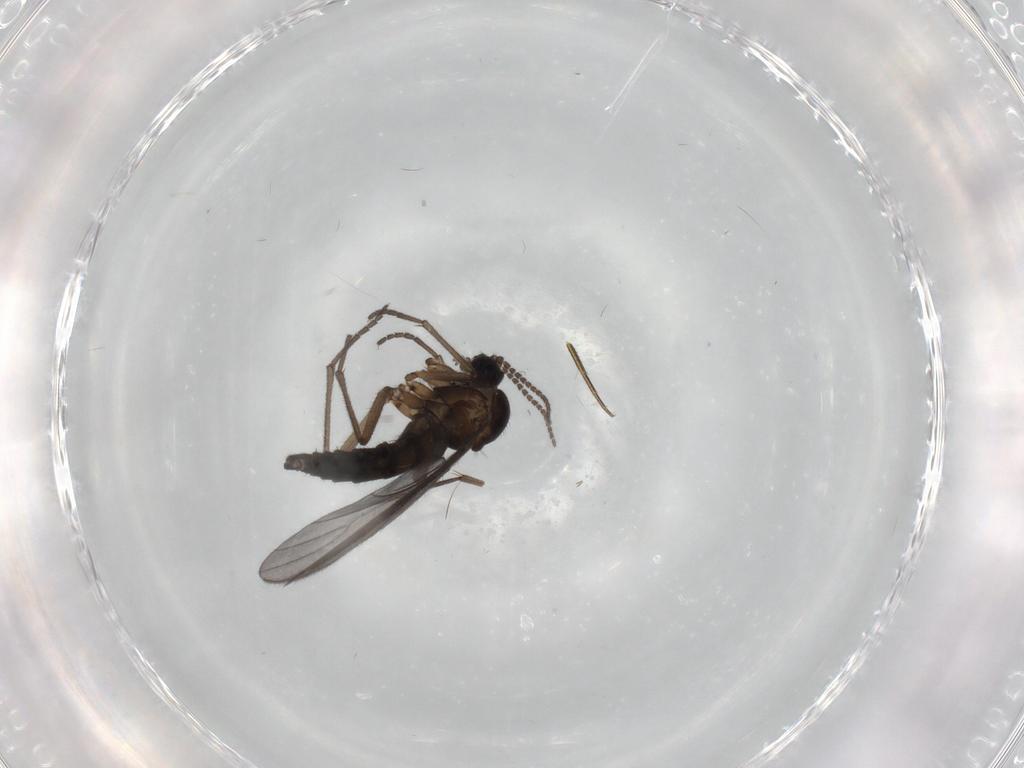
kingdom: Animalia
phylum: Arthropoda
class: Insecta
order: Diptera
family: Sciaridae
